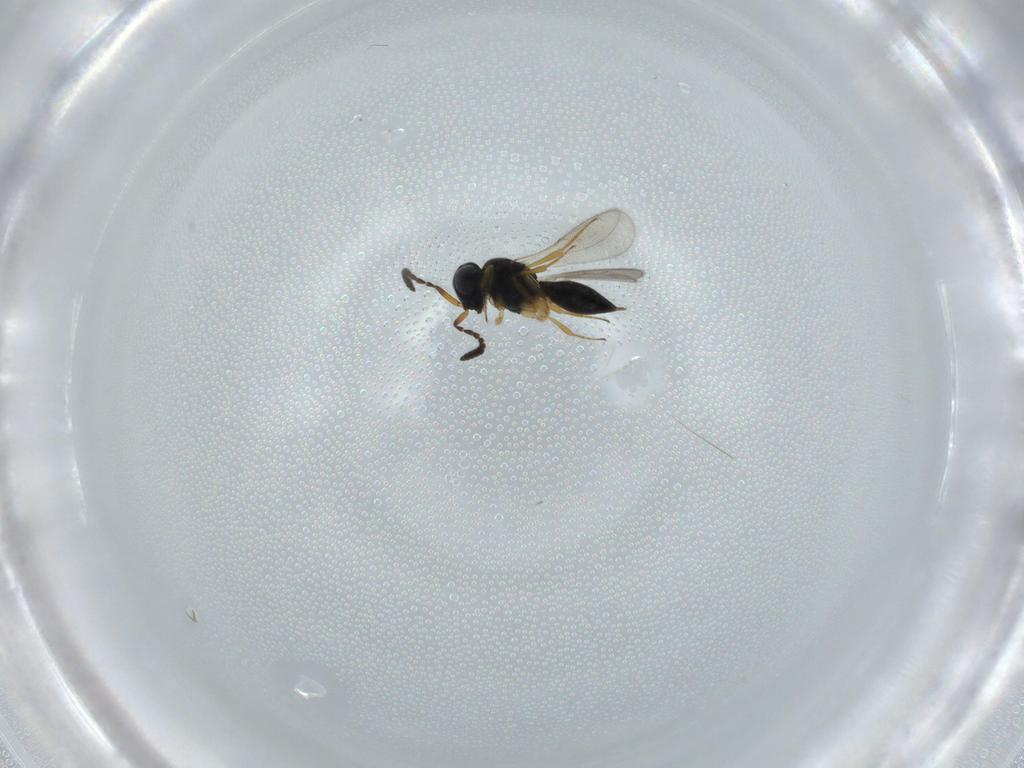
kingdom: Animalia
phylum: Arthropoda
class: Insecta
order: Hymenoptera
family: Scelionidae
